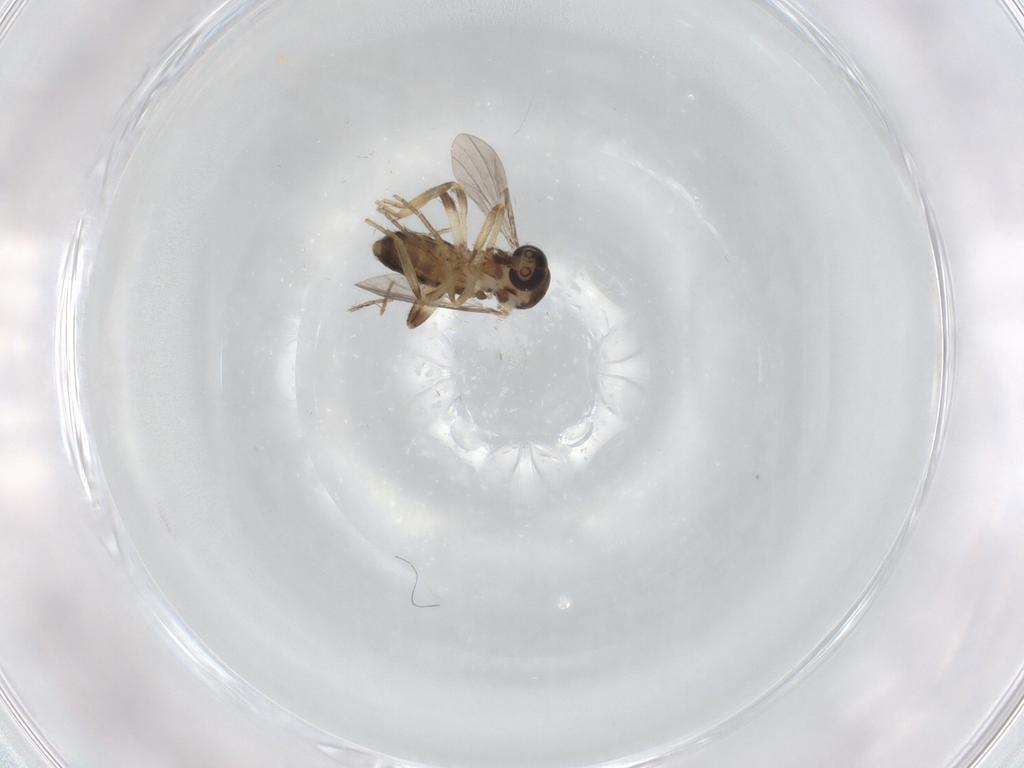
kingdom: Animalia
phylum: Arthropoda
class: Insecta
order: Diptera
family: Ceratopogonidae
